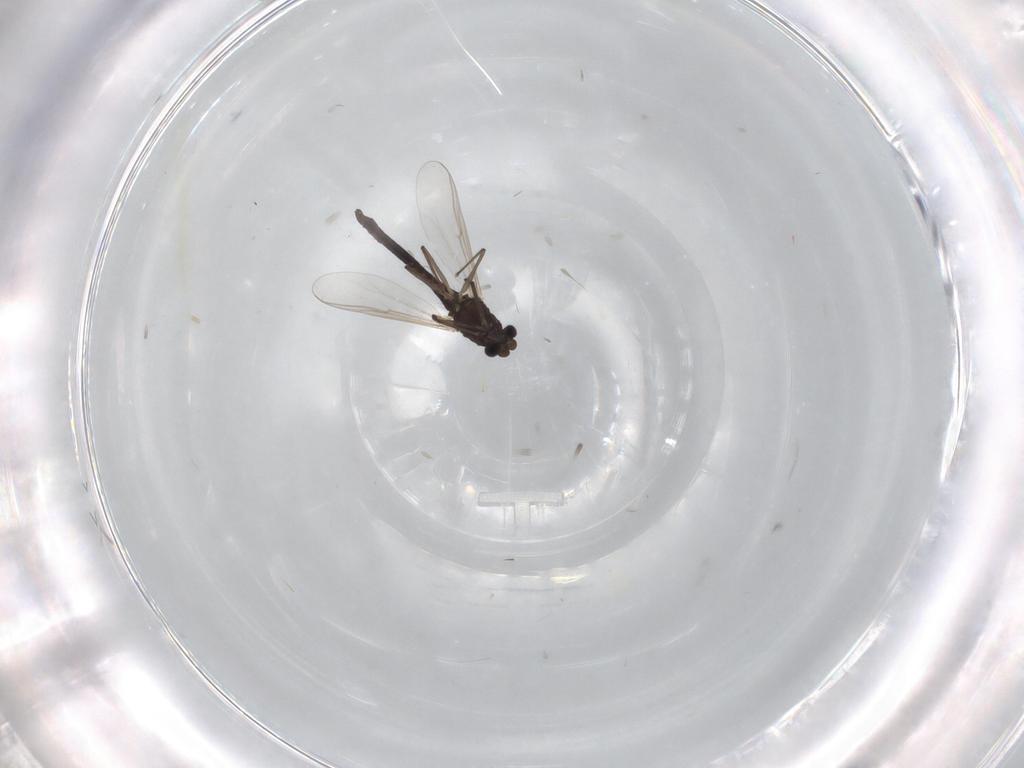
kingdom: Animalia
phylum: Arthropoda
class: Insecta
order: Diptera
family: Chironomidae
